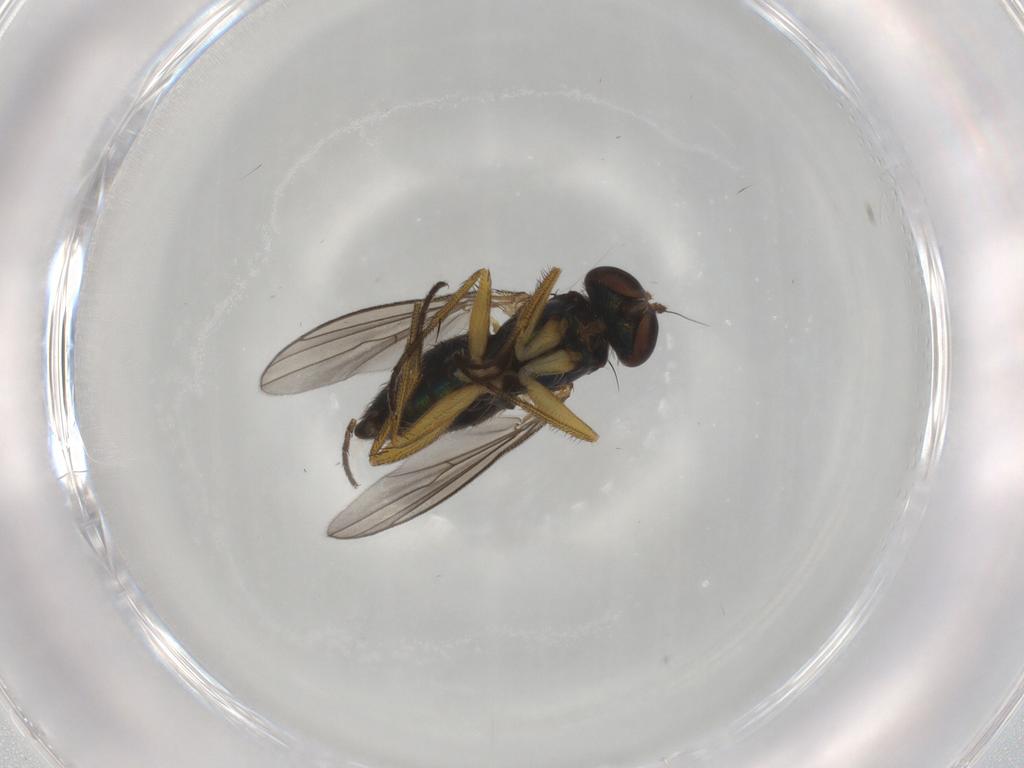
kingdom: Animalia
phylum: Arthropoda
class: Insecta
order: Diptera
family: Dolichopodidae
